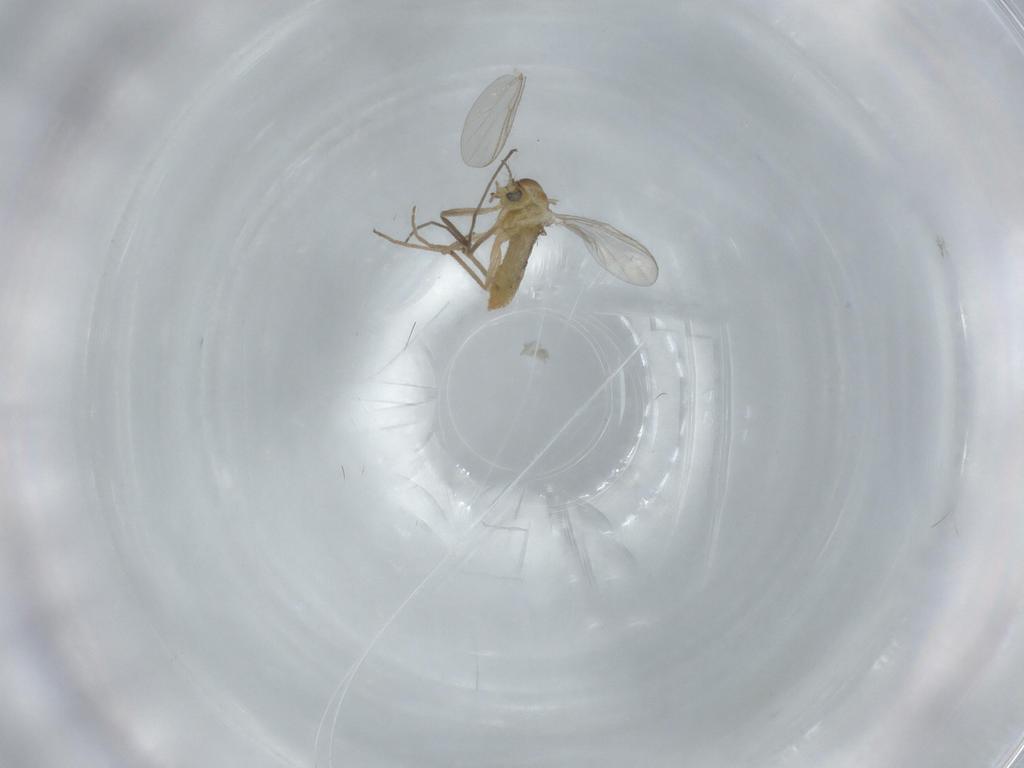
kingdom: Animalia
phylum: Arthropoda
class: Insecta
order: Diptera
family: Chironomidae
